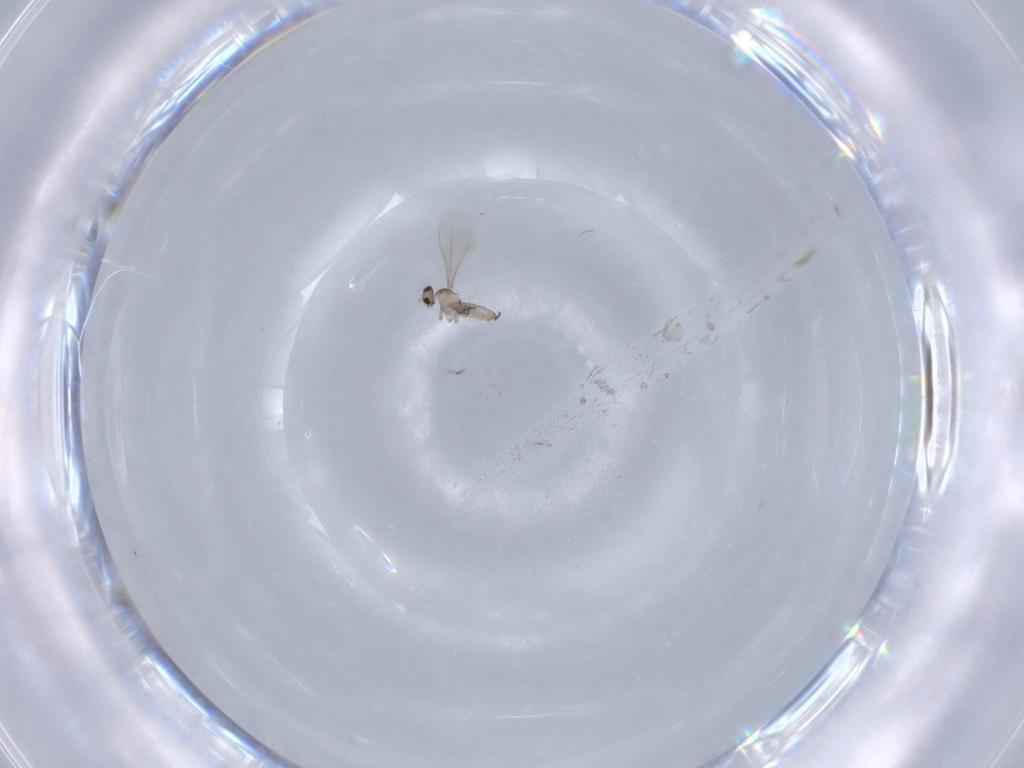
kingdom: Animalia
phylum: Arthropoda
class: Insecta
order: Diptera
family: Cecidomyiidae
